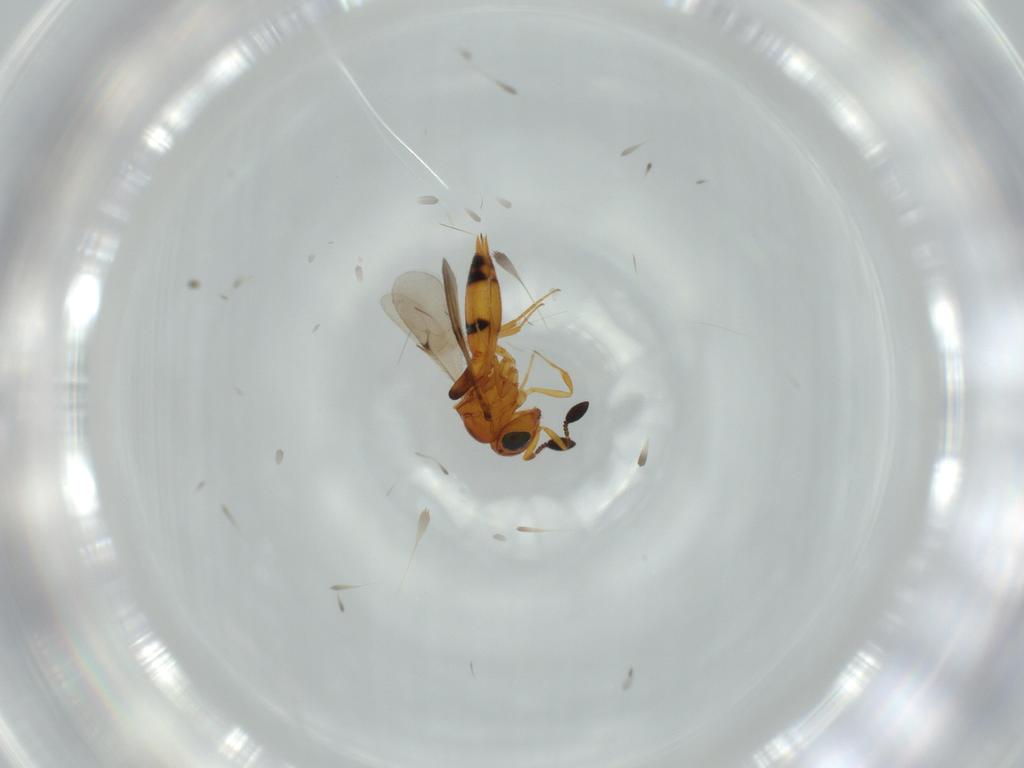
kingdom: Animalia
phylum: Arthropoda
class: Insecta
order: Hymenoptera
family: Scelionidae
